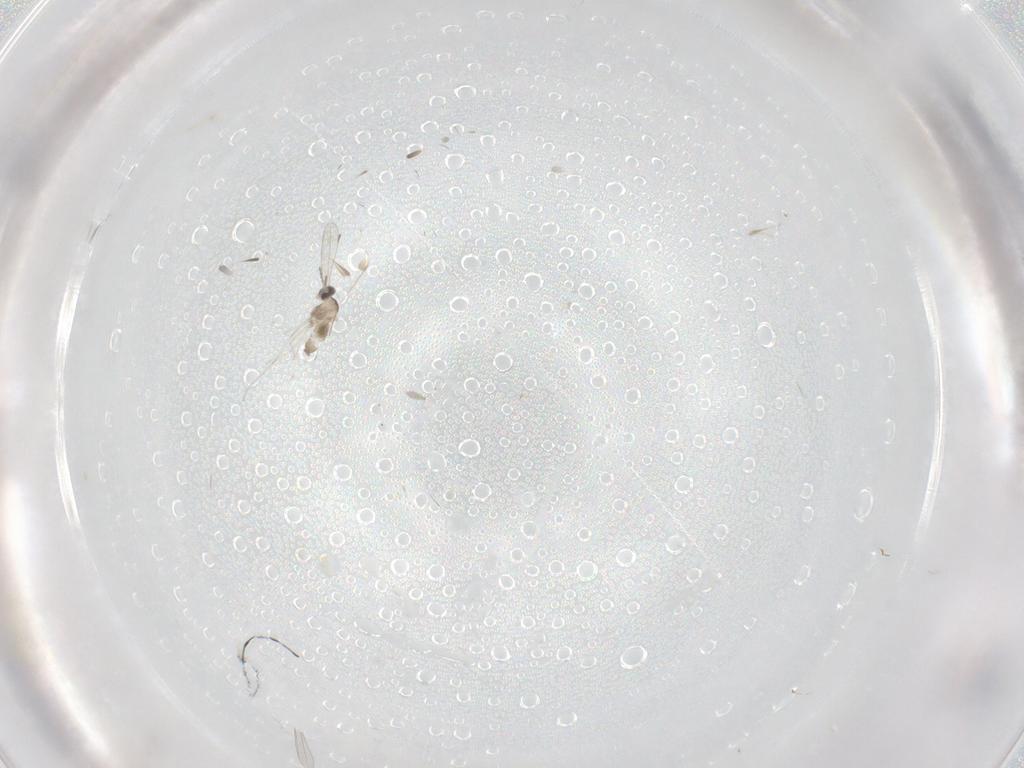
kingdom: Animalia
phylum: Arthropoda
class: Insecta
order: Diptera
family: Cecidomyiidae
